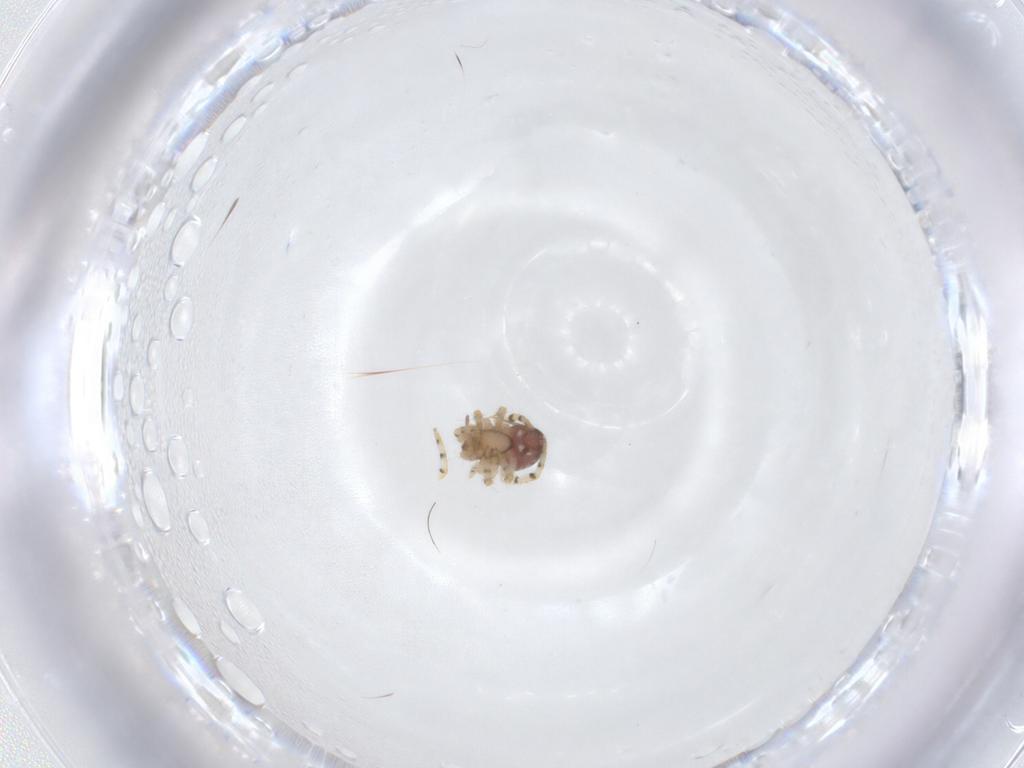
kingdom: Animalia
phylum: Arthropoda
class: Arachnida
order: Araneae
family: Theridiidae
